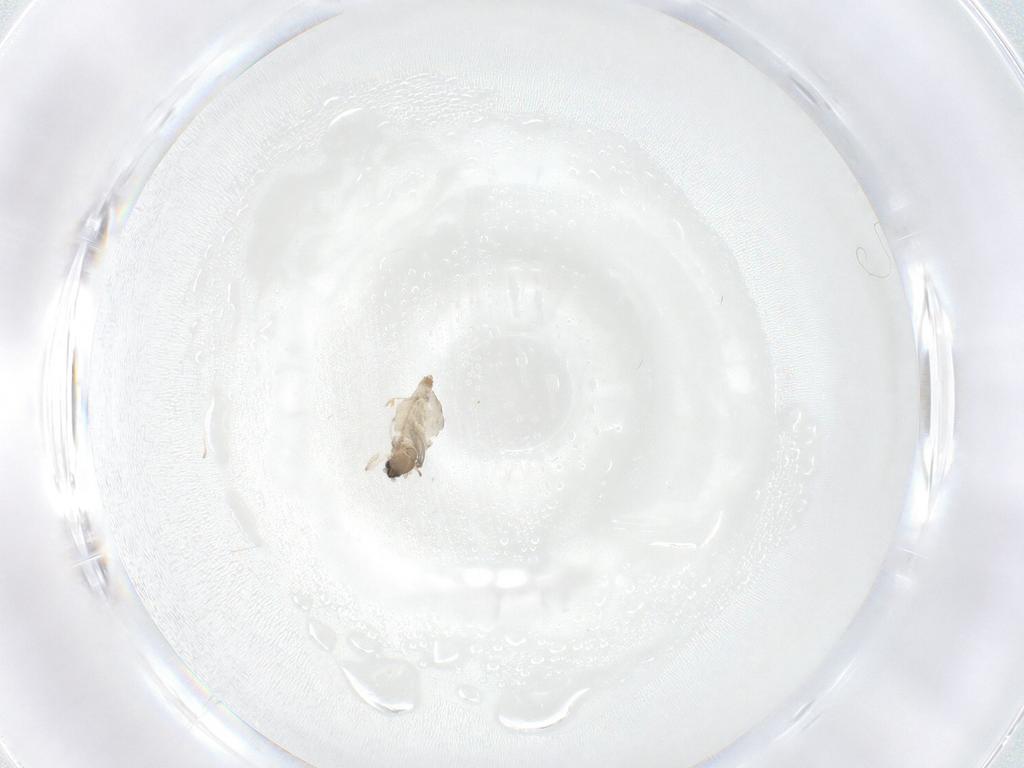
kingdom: Animalia
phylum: Arthropoda
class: Insecta
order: Diptera
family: Cecidomyiidae
